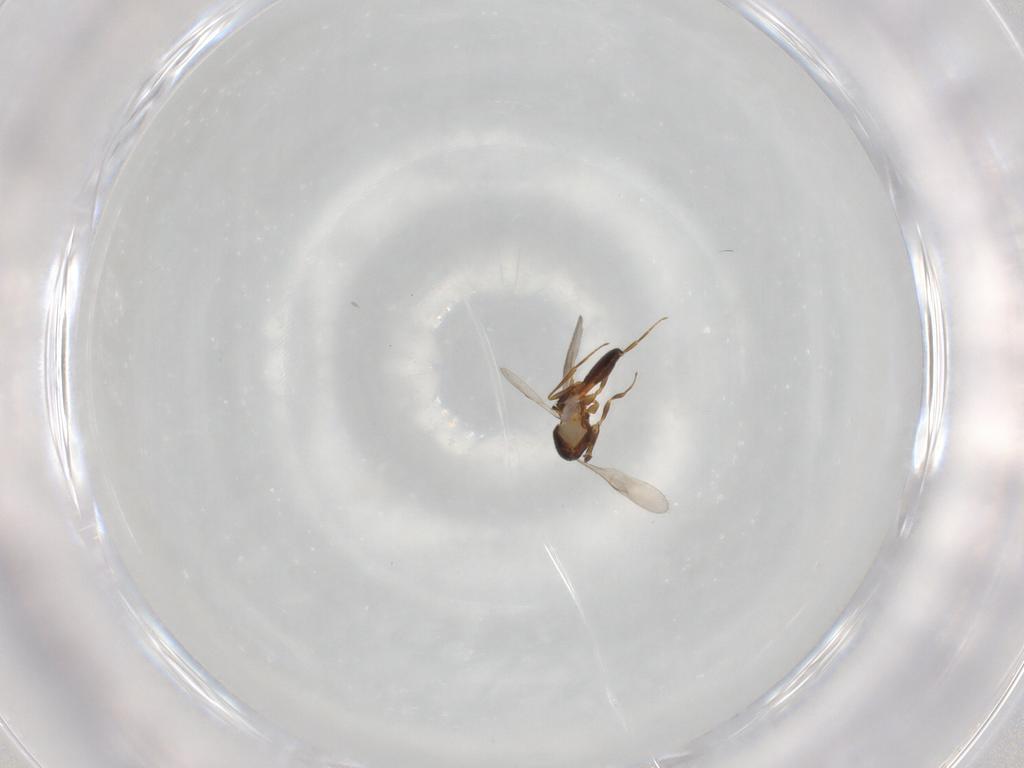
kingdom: Animalia
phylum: Arthropoda
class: Insecta
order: Hymenoptera
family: Scelionidae
